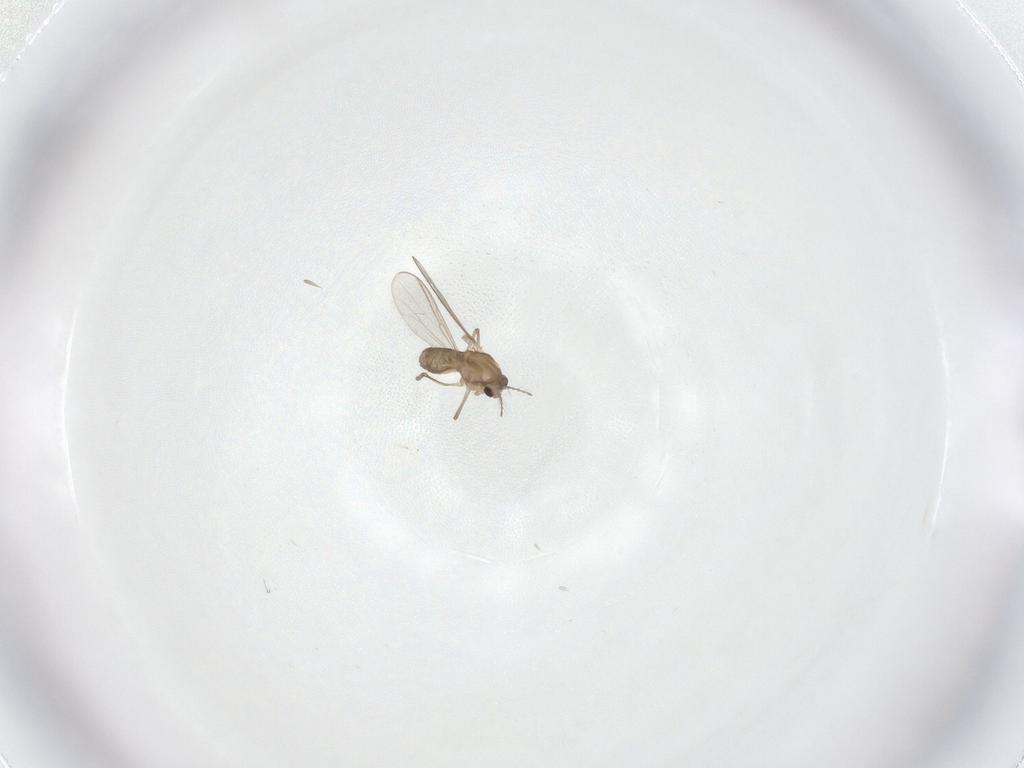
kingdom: Animalia
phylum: Arthropoda
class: Insecta
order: Diptera
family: Chironomidae
